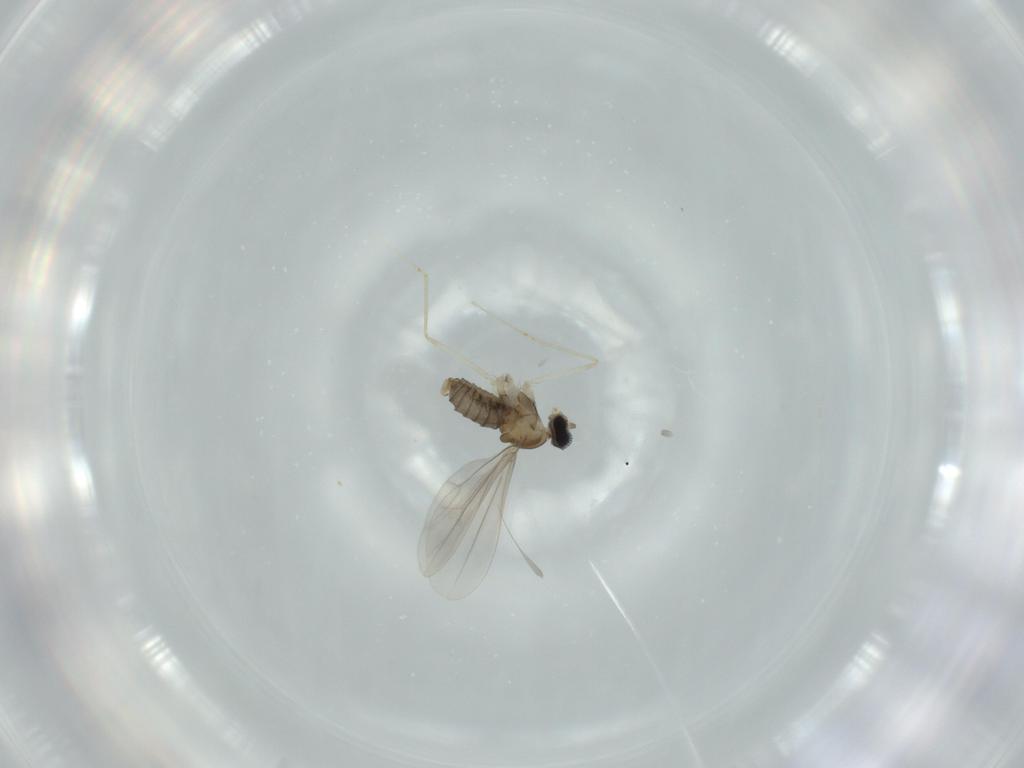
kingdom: Animalia
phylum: Arthropoda
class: Insecta
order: Diptera
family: Cecidomyiidae
